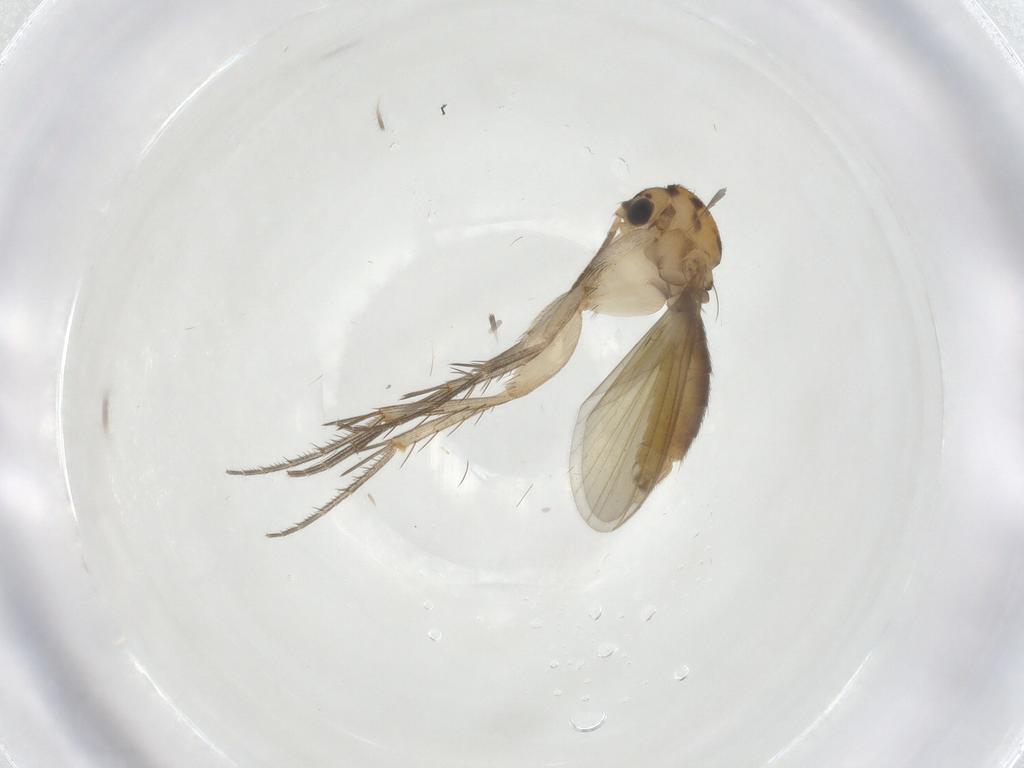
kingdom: Animalia
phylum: Arthropoda
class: Insecta
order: Diptera
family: Mycetophilidae
